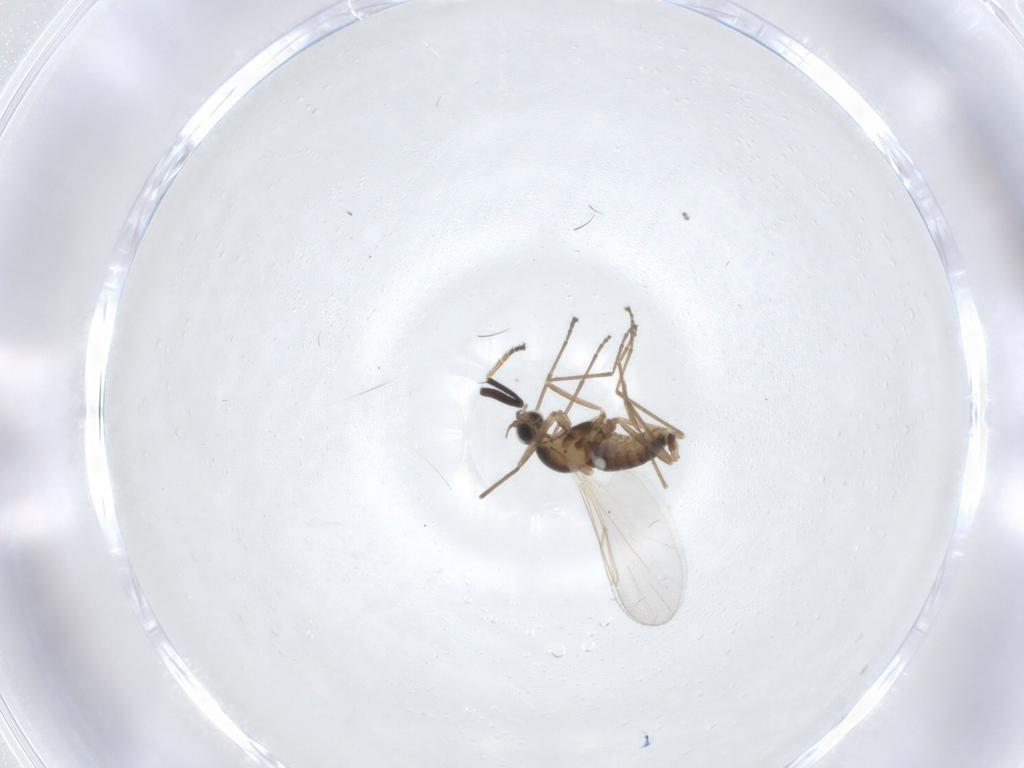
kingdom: Animalia
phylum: Arthropoda
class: Insecta
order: Diptera
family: Cecidomyiidae
